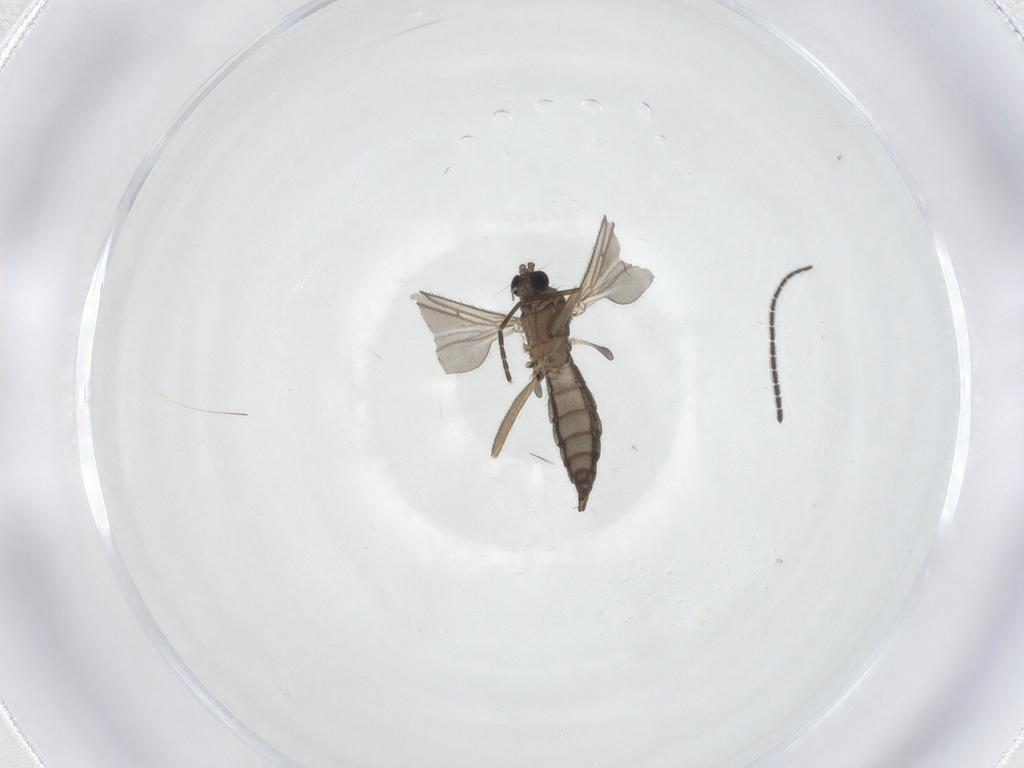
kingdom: Animalia
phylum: Arthropoda
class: Insecta
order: Diptera
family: Sciaridae
